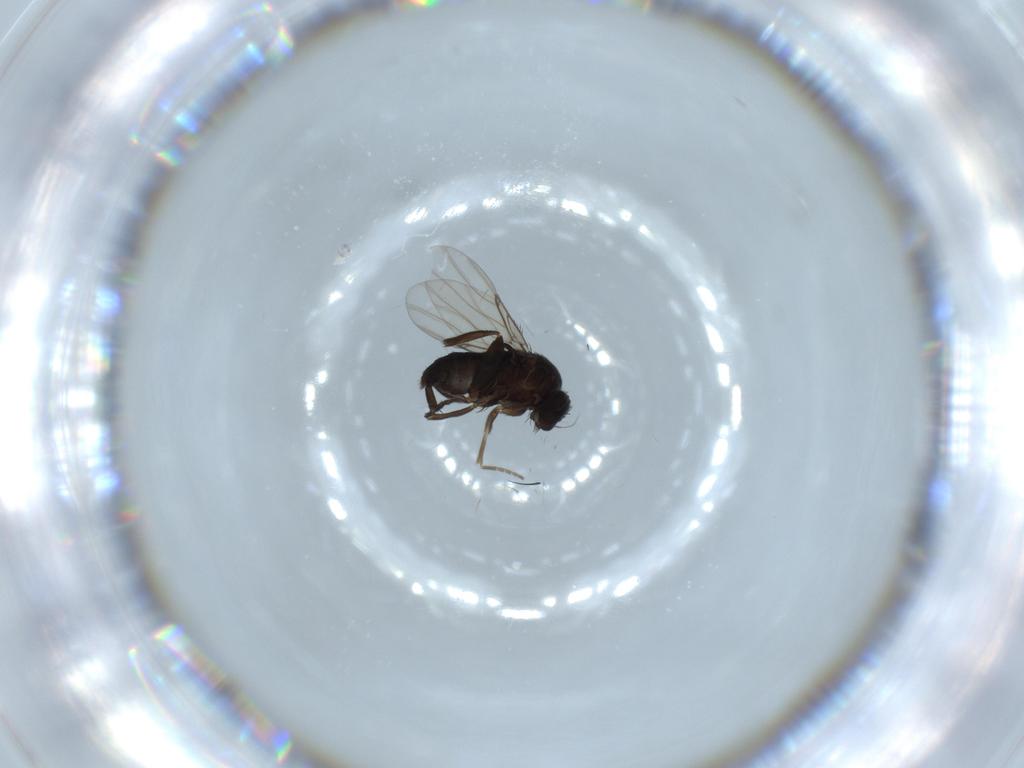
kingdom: Animalia
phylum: Arthropoda
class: Insecta
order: Diptera
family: Phoridae
